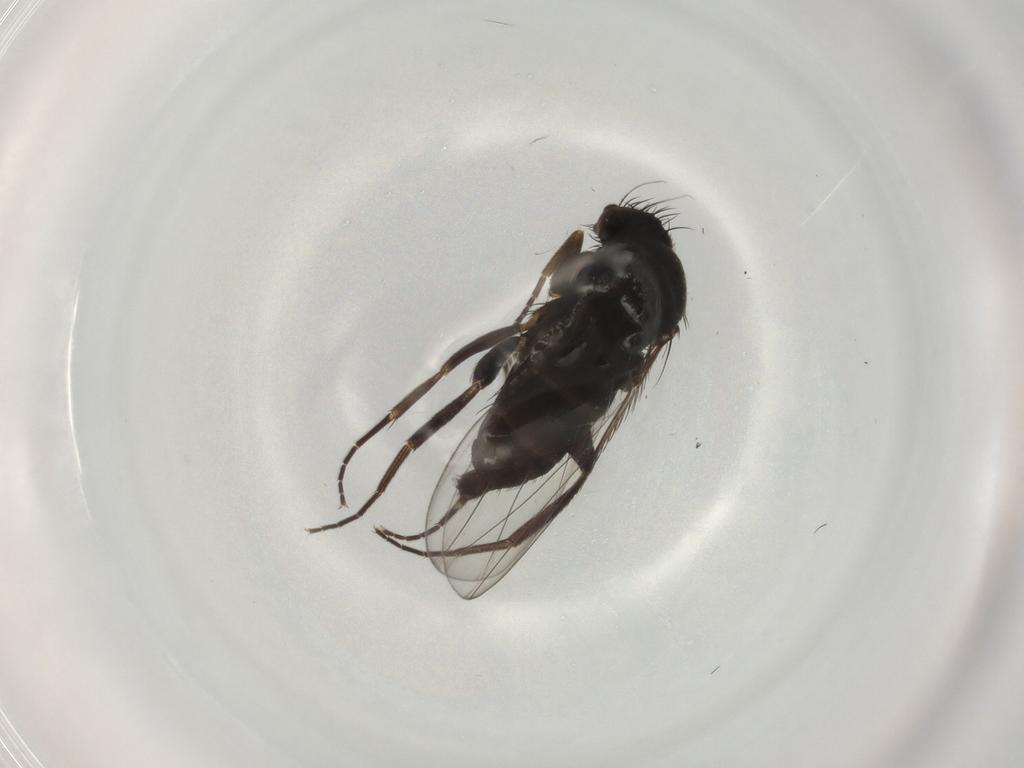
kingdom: Animalia
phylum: Arthropoda
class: Insecta
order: Diptera
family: Phoridae
